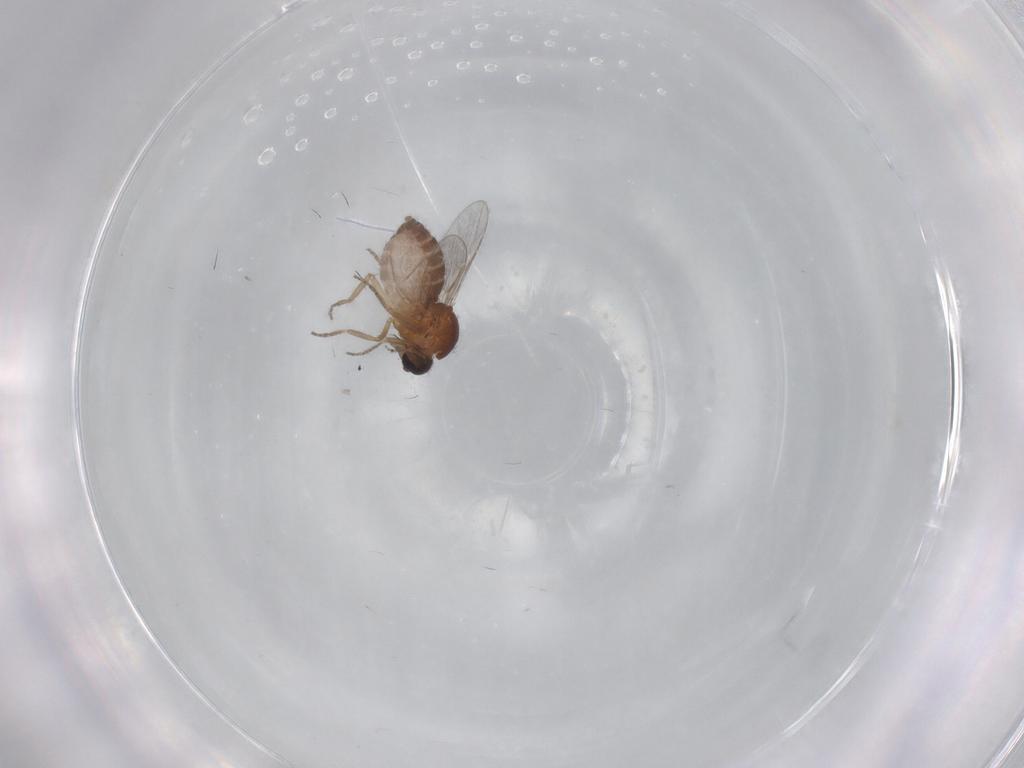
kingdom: Animalia
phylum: Arthropoda
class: Insecta
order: Diptera
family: Ceratopogonidae
